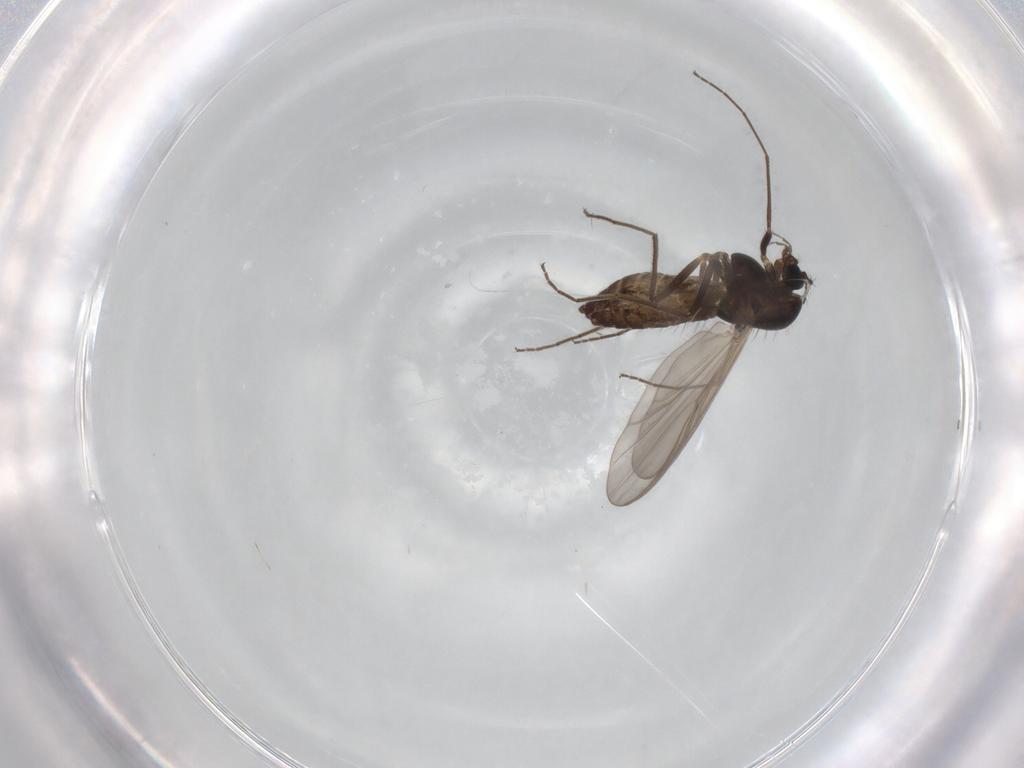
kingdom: Animalia
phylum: Arthropoda
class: Insecta
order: Diptera
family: Chironomidae
